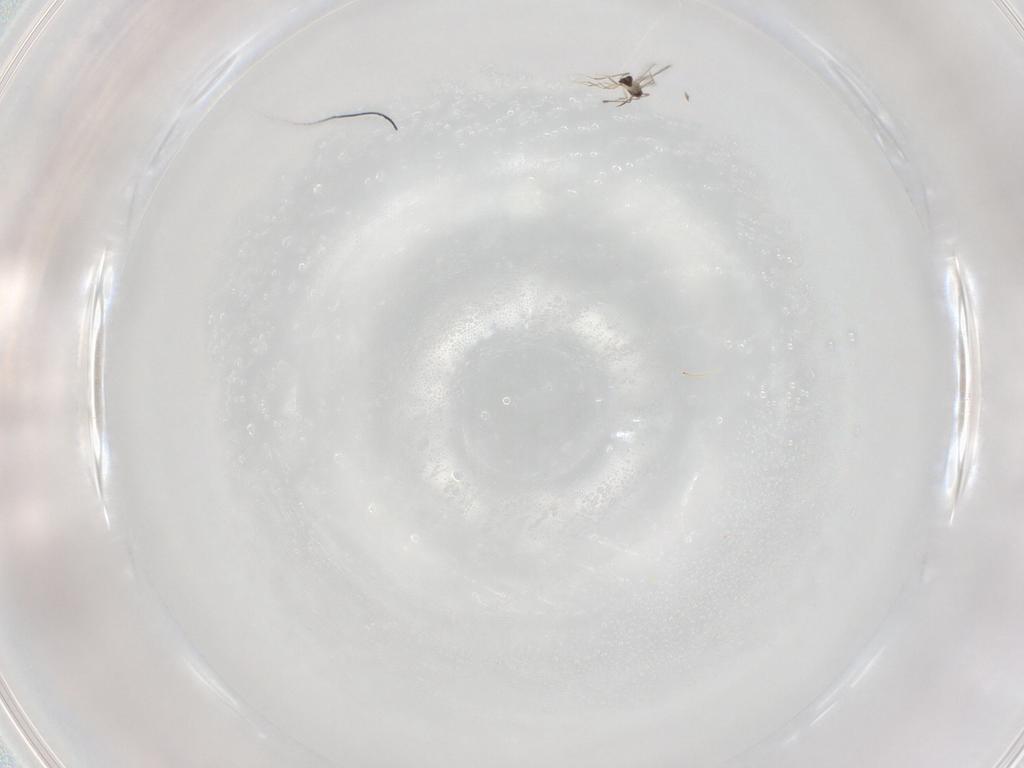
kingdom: Animalia
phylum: Arthropoda
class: Insecta
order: Hymenoptera
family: Mymaridae
